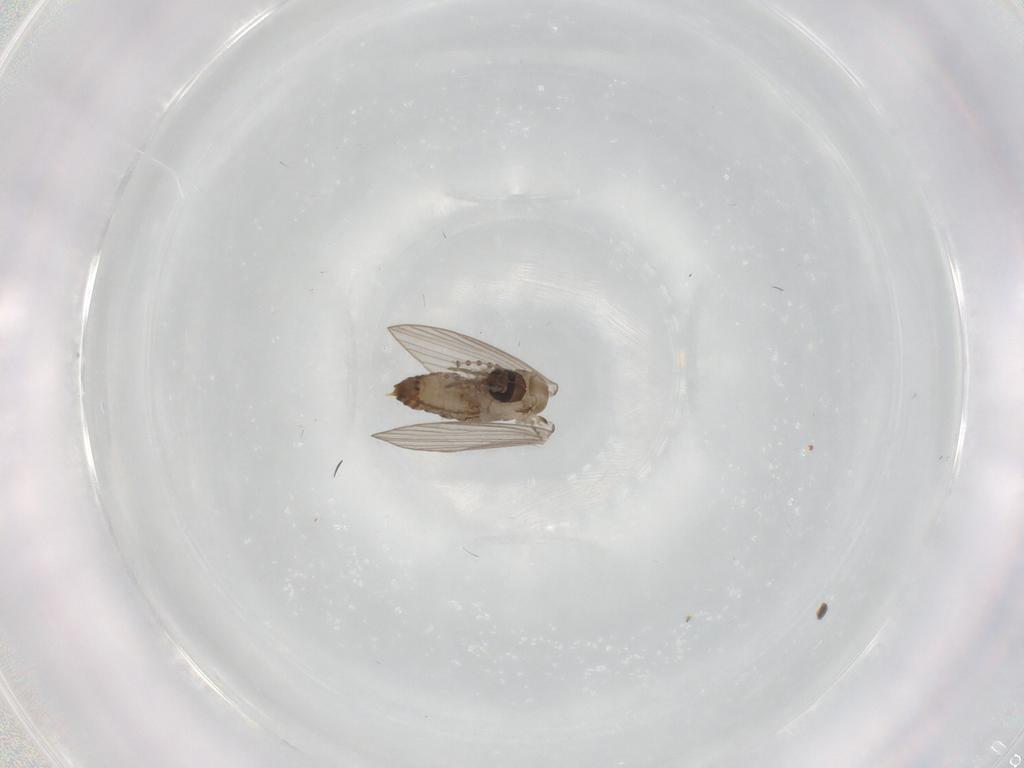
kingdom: Animalia
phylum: Arthropoda
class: Insecta
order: Diptera
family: Psychodidae
